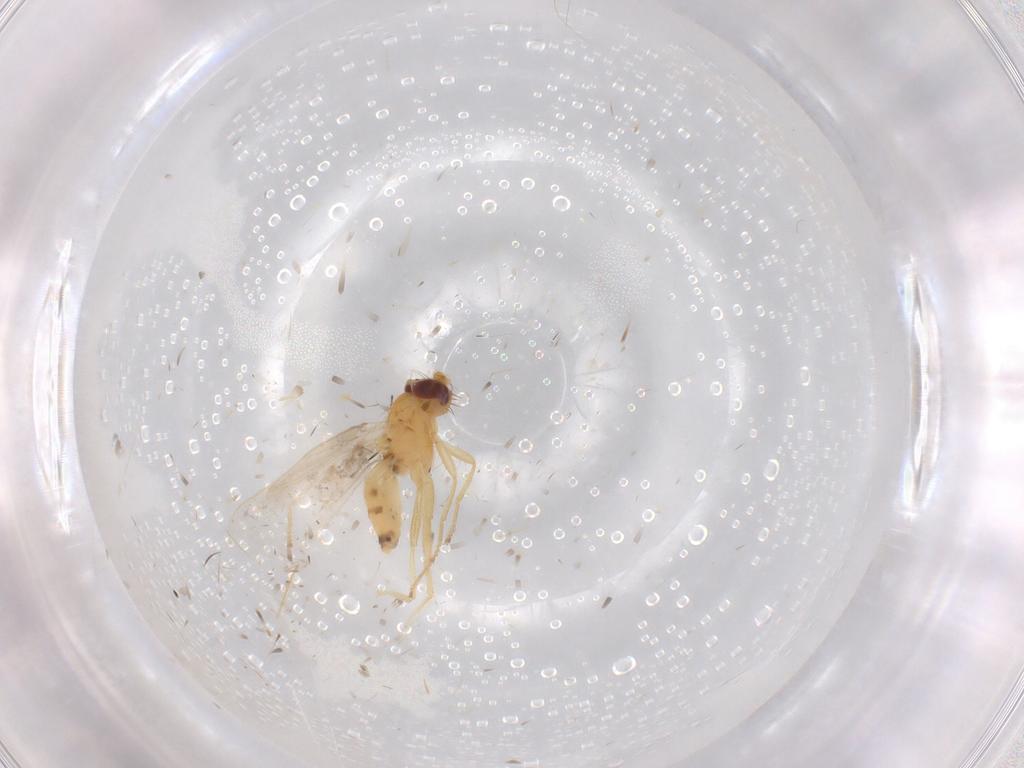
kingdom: Animalia
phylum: Arthropoda
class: Insecta
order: Diptera
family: Periscelididae
